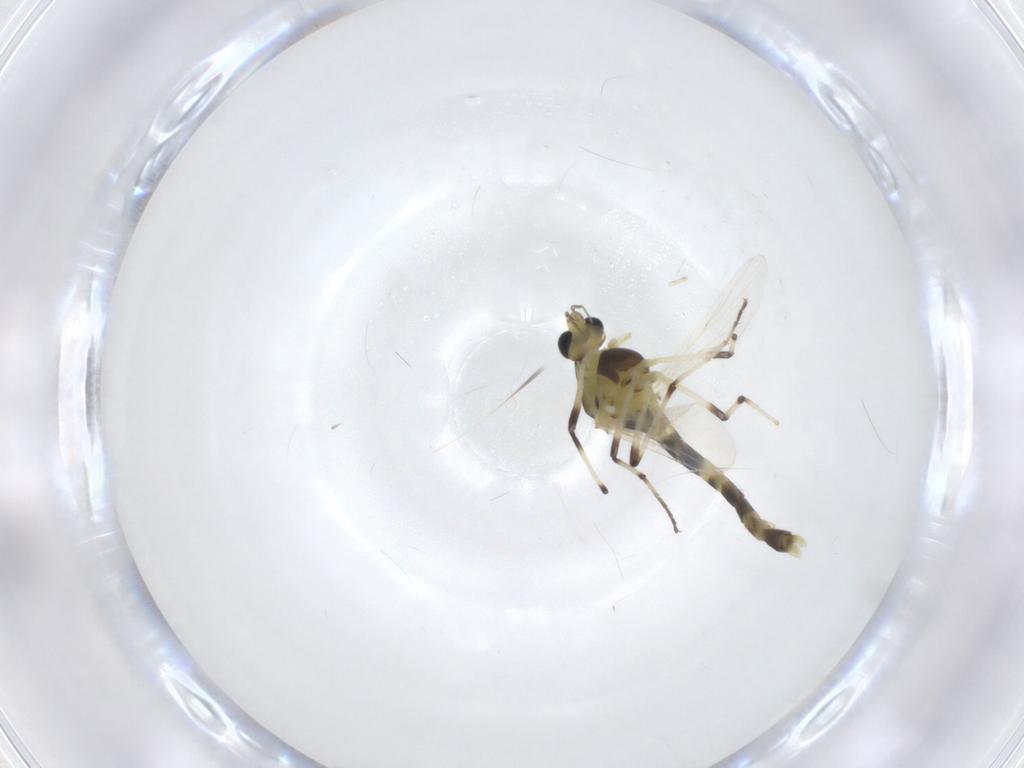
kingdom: Animalia
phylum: Arthropoda
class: Insecta
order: Diptera
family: Chironomidae
